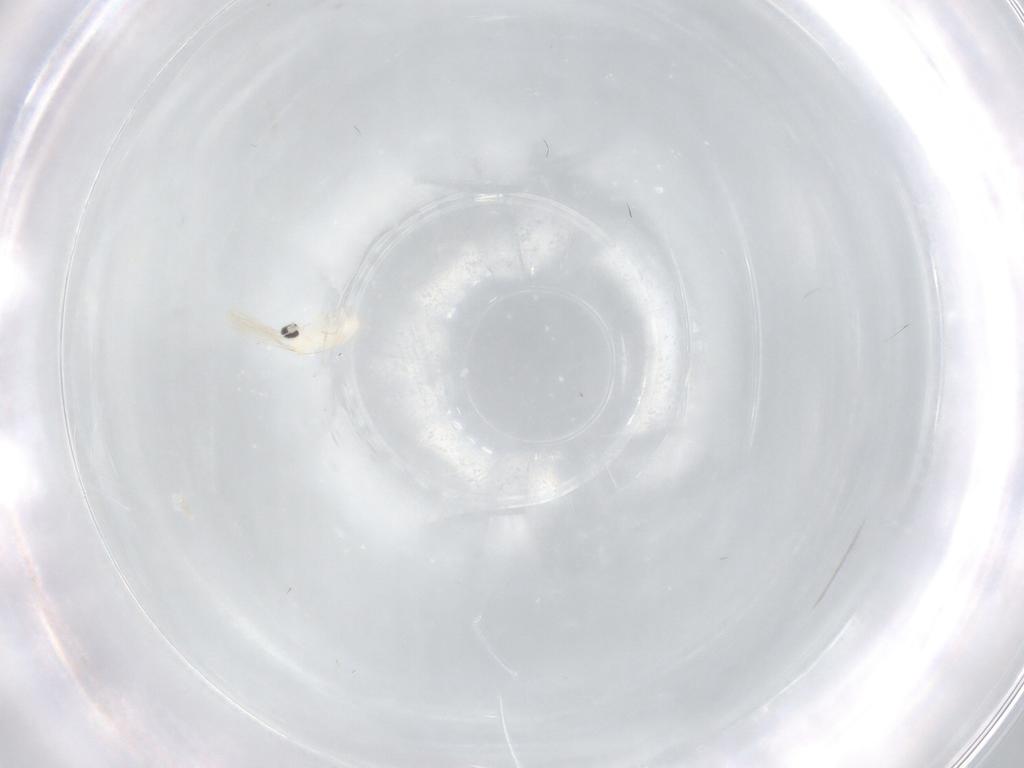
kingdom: Animalia
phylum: Arthropoda
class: Insecta
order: Diptera
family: Cecidomyiidae
